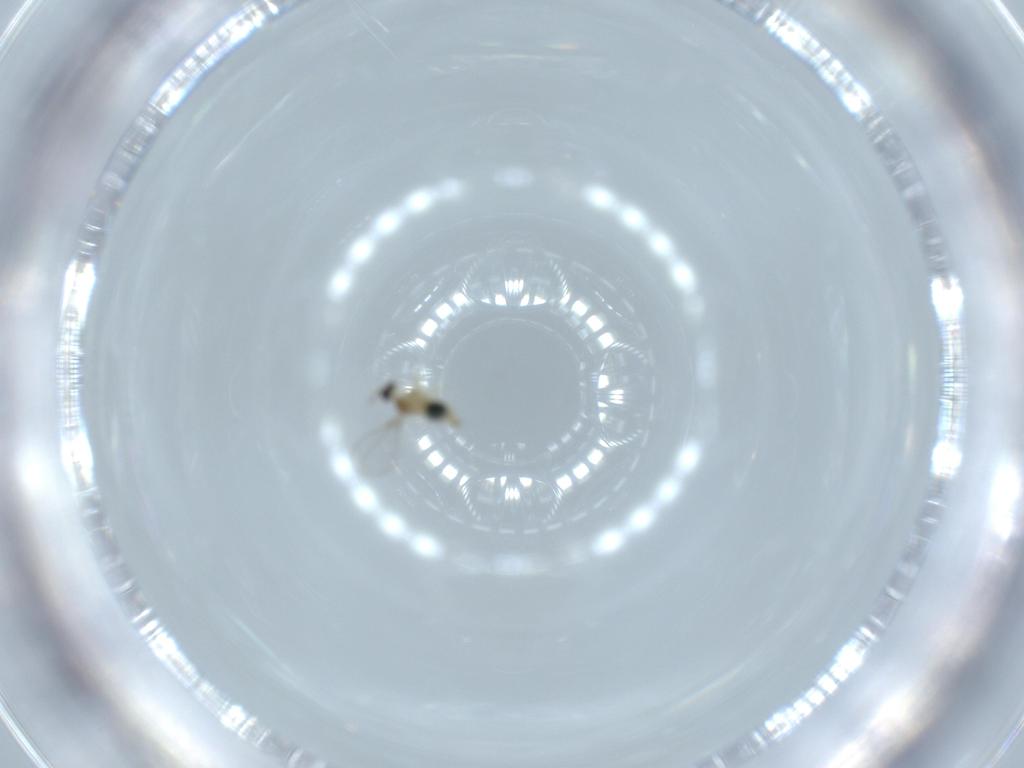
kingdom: Animalia
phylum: Arthropoda
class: Insecta
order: Diptera
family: Cecidomyiidae
